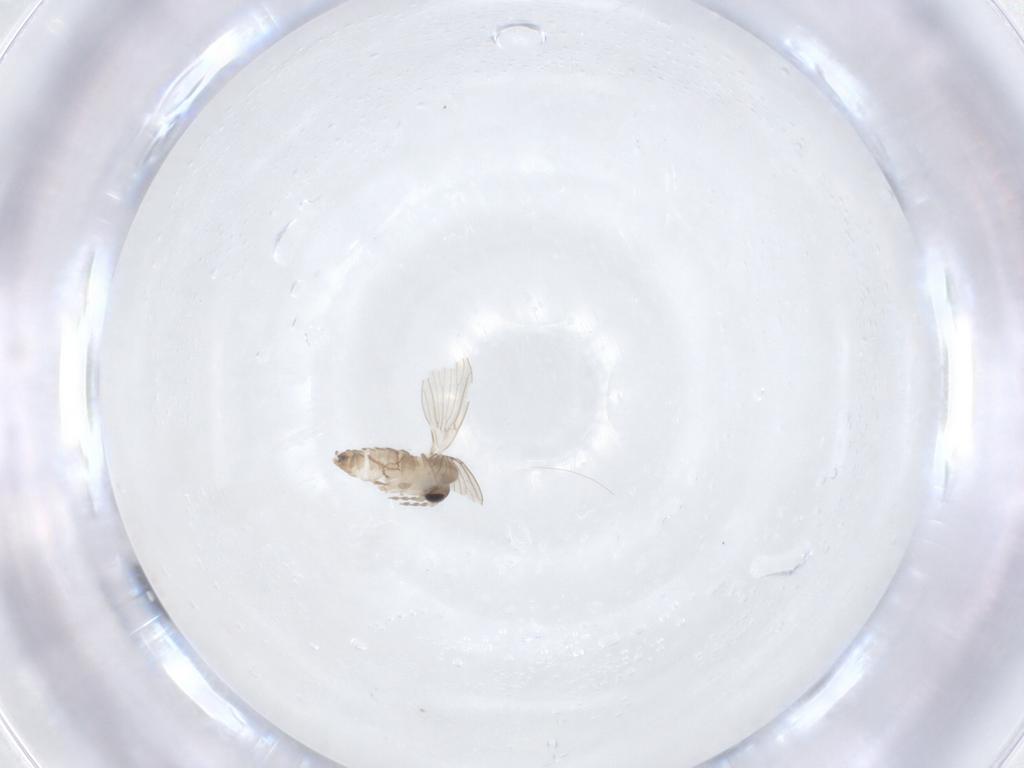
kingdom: Animalia
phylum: Arthropoda
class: Insecta
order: Diptera
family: Psychodidae
